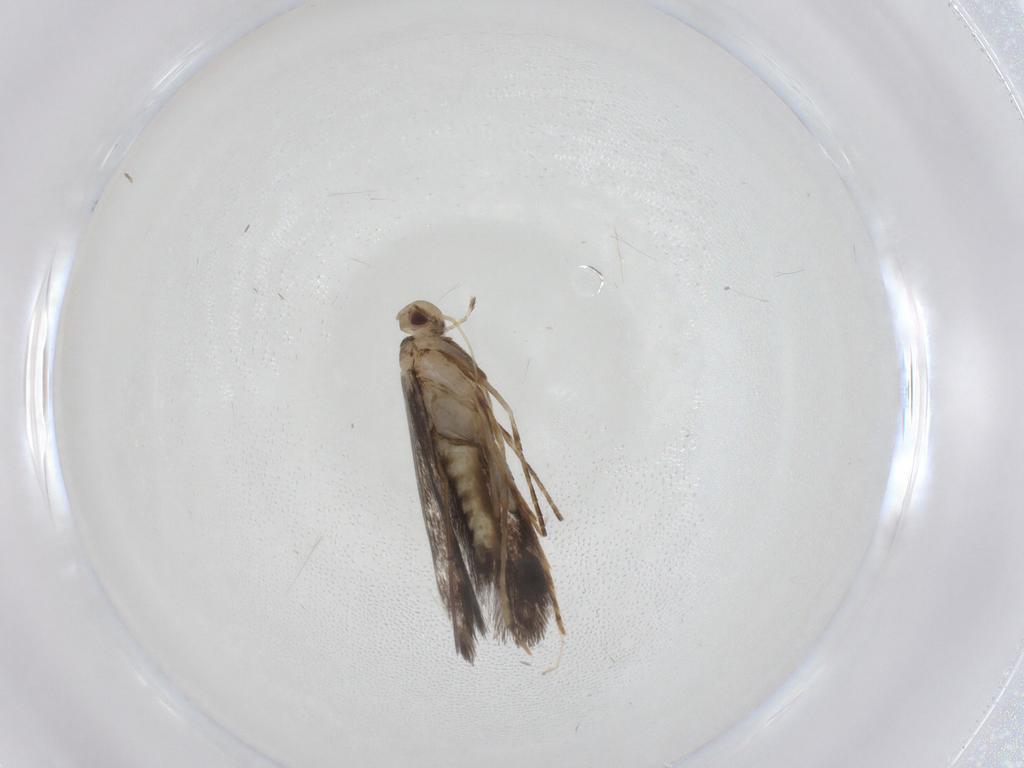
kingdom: Animalia
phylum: Arthropoda
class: Insecta
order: Lepidoptera
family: Gracillariidae
